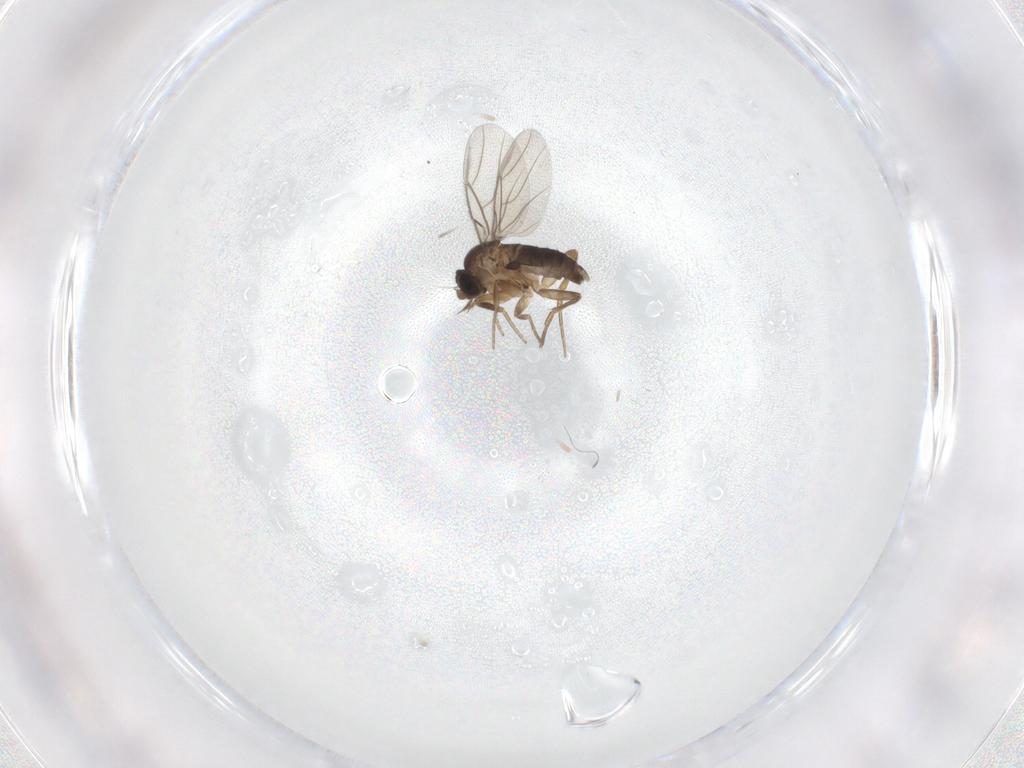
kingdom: Animalia
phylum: Arthropoda
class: Insecta
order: Diptera
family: Phoridae
